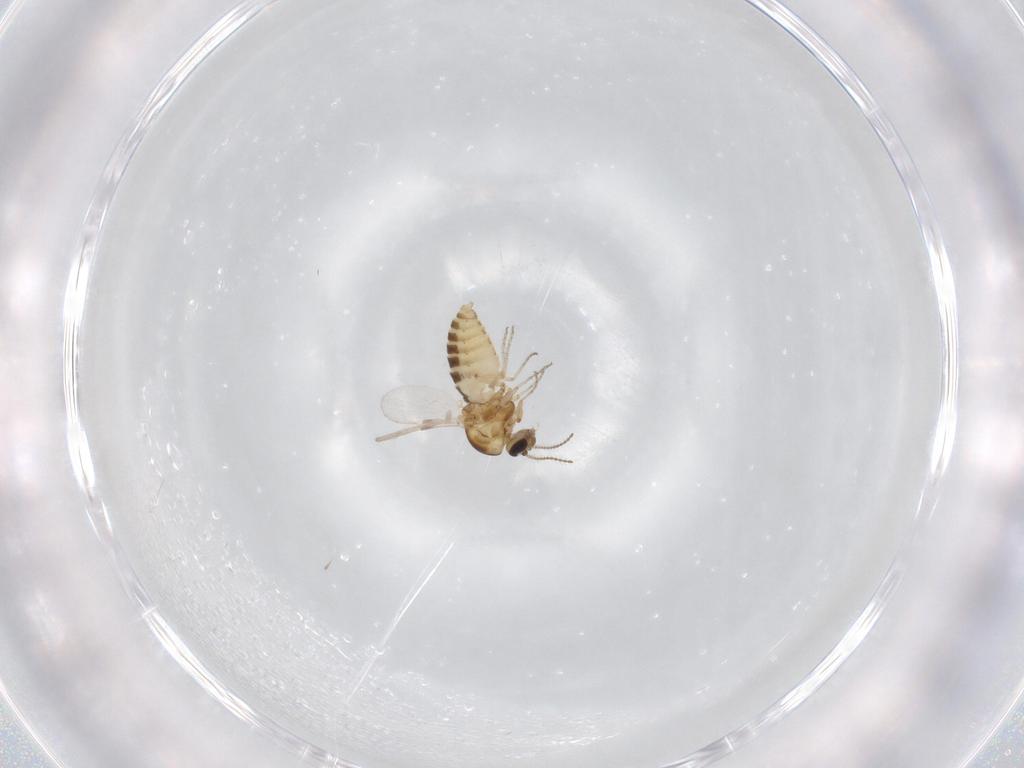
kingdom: Animalia
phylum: Arthropoda
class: Insecta
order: Diptera
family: Ceratopogonidae
